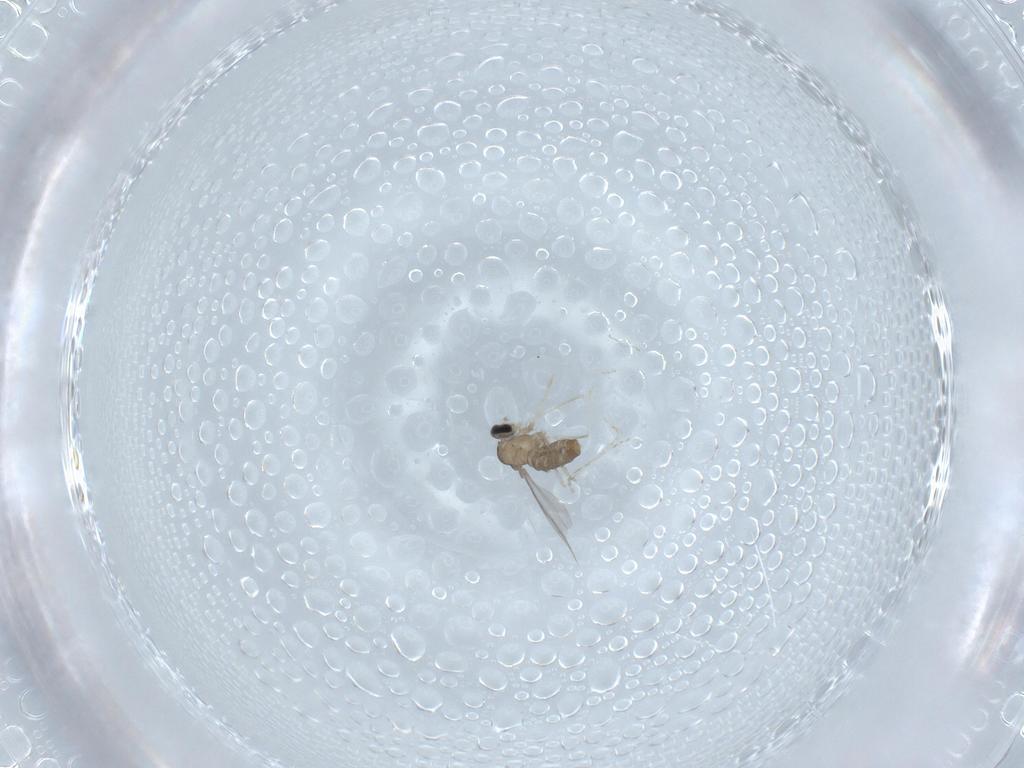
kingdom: Animalia
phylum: Arthropoda
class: Insecta
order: Diptera
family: Cecidomyiidae
